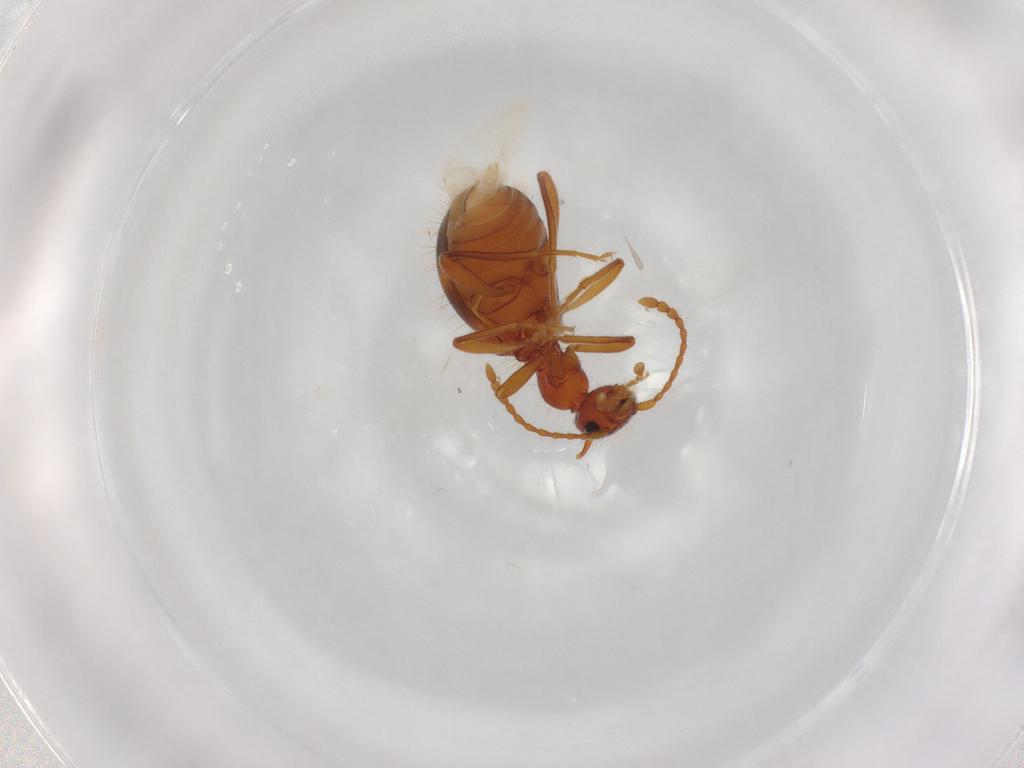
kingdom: Animalia
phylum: Arthropoda
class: Insecta
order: Coleoptera
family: Anthicidae
